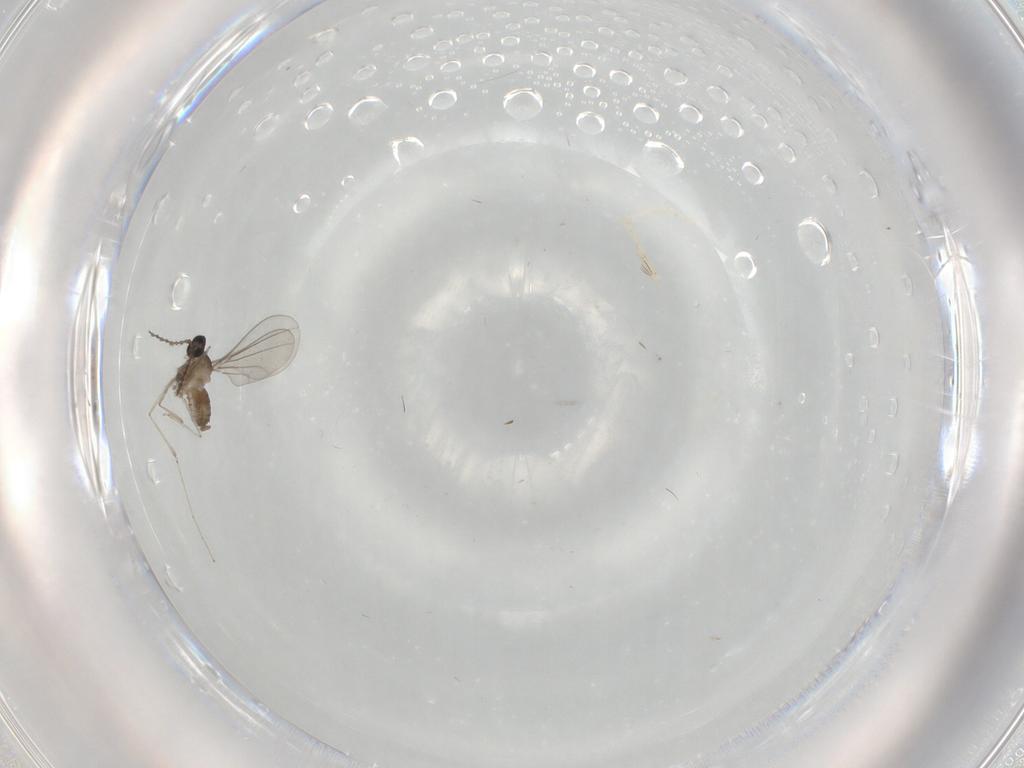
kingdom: Animalia
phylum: Arthropoda
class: Insecta
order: Diptera
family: Cecidomyiidae
